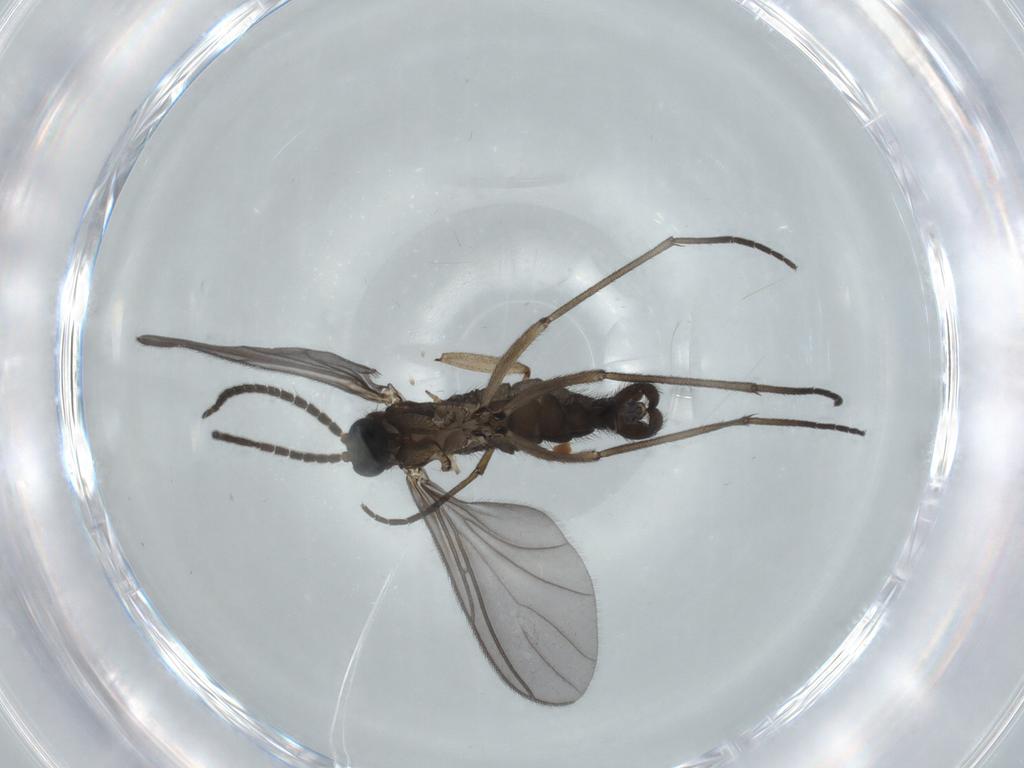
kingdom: Animalia
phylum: Arthropoda
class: Insecta
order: Diptera
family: Sciaridae
